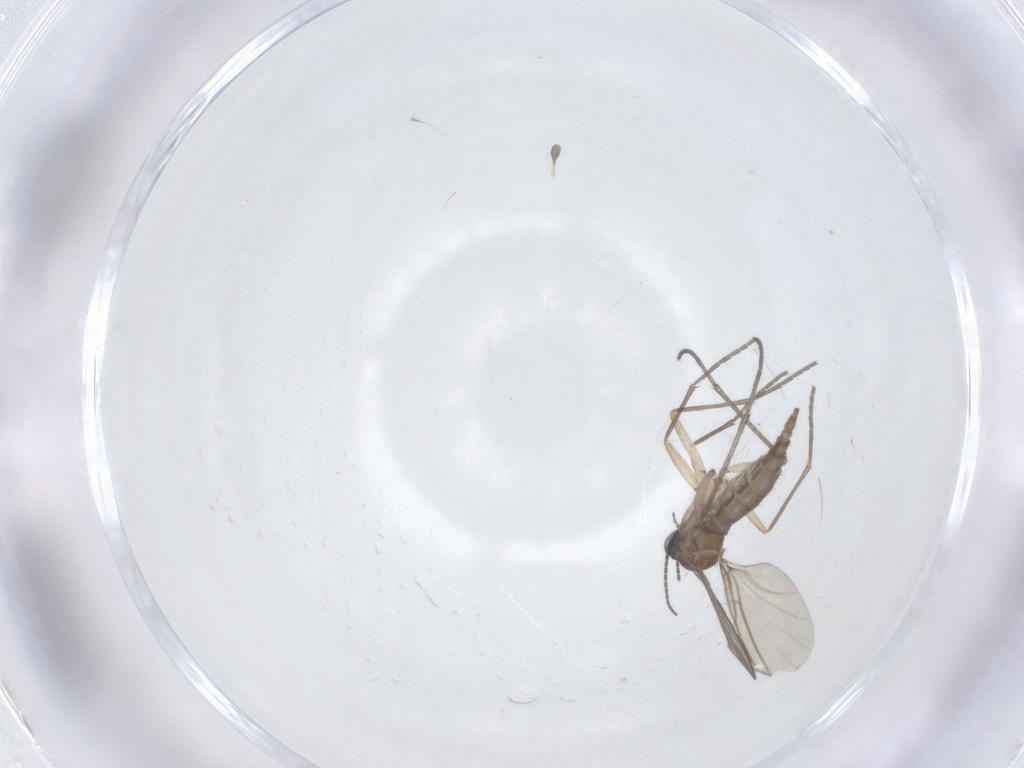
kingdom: Animalia
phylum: Arthropoda
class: Insecta
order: Diptera
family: Sciaridae
